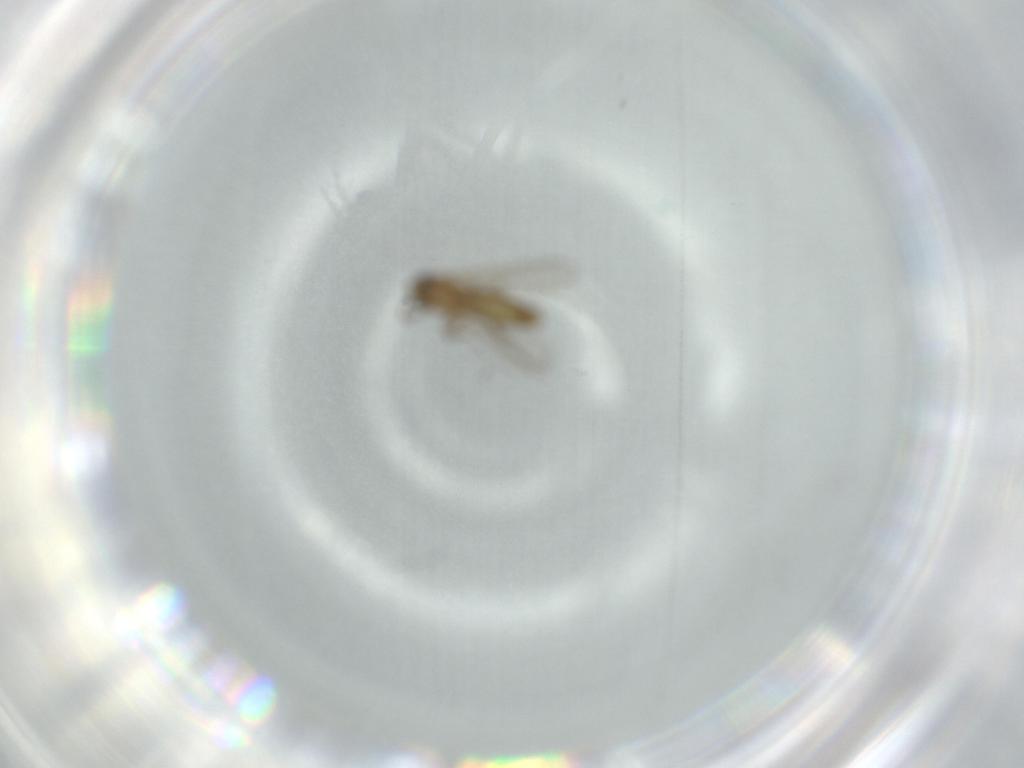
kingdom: Animalia
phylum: Arthropoda
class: Insecta
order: Diptera
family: Chironomidae
